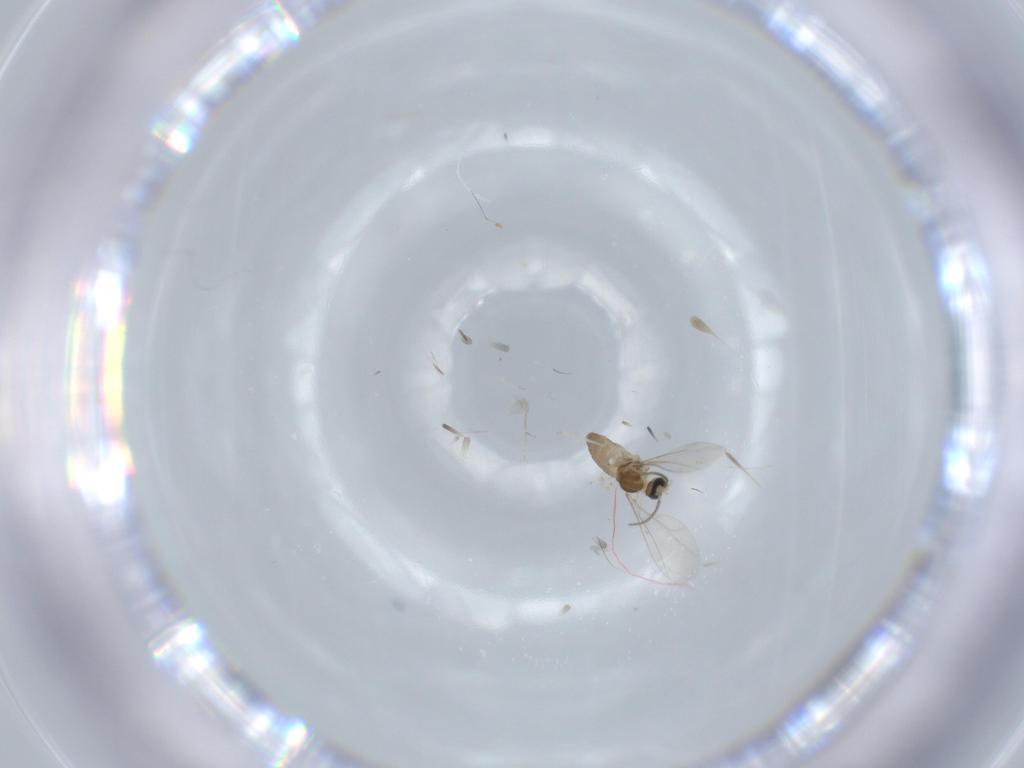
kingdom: Animalia
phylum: Arthropoda
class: Insecta
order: Diptera
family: Cecidomyiidae
